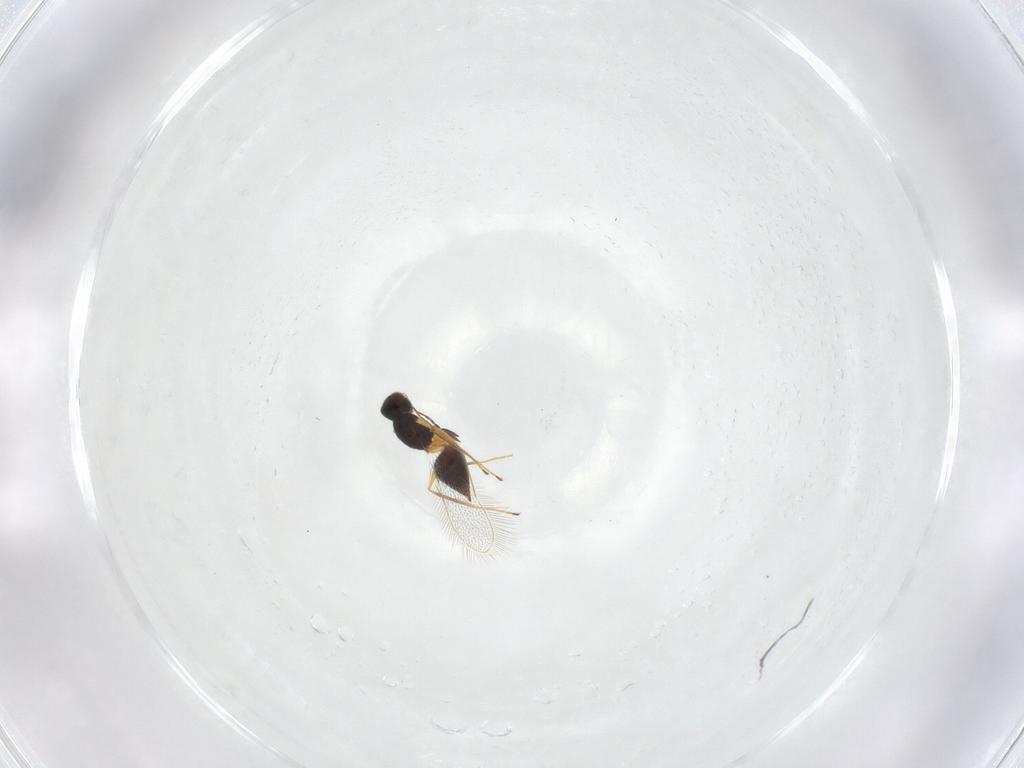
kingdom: Animalia
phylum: Arthropoda
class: Insecta
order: Hymenoptera
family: Mymaridae
